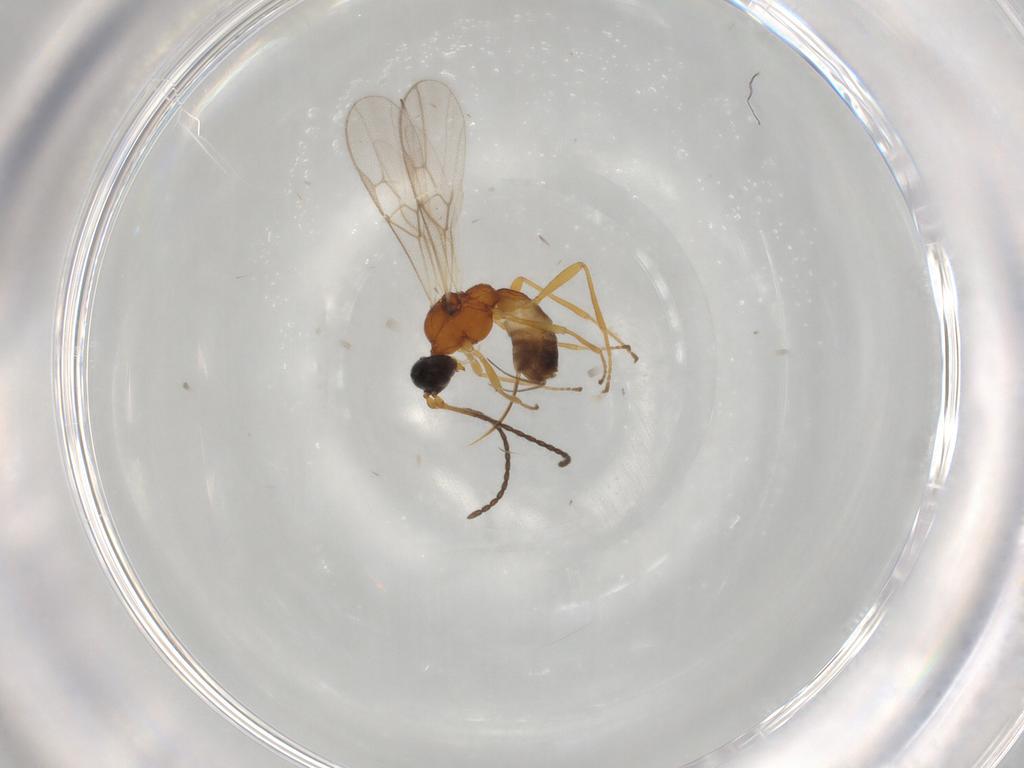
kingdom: Animalia
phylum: Arthropoda
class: Insecta
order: Hymenoptera
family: Braconidae
